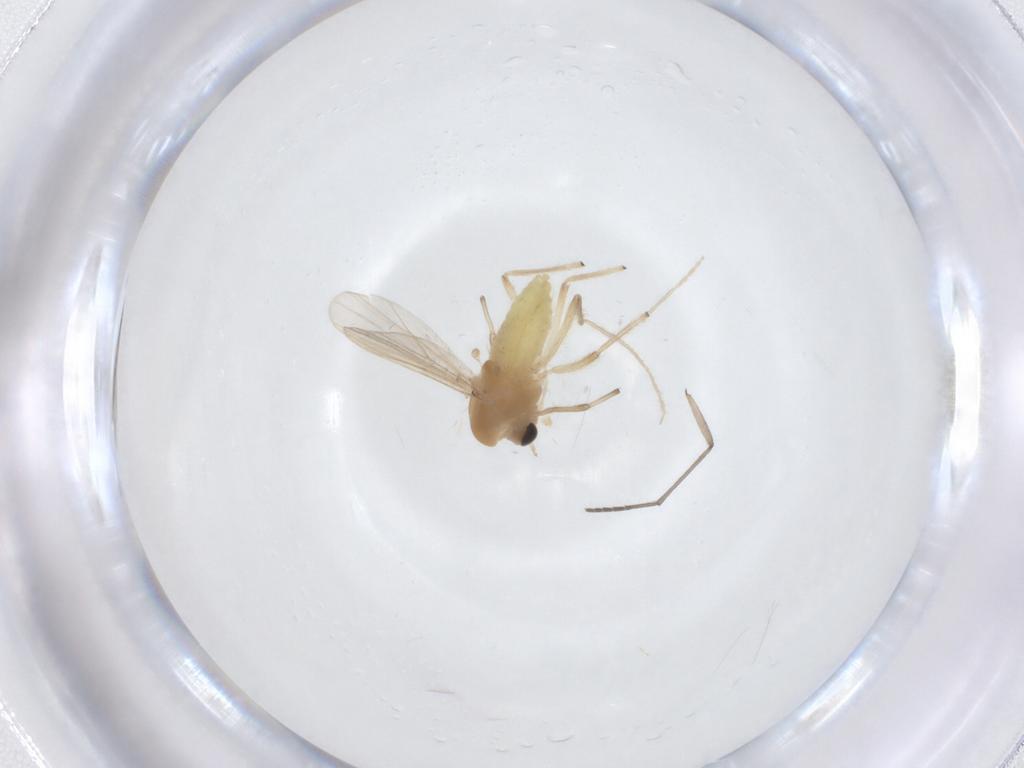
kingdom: Animalia
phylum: Arthropoda
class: Insecta
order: Diptera
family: Chironomidae
